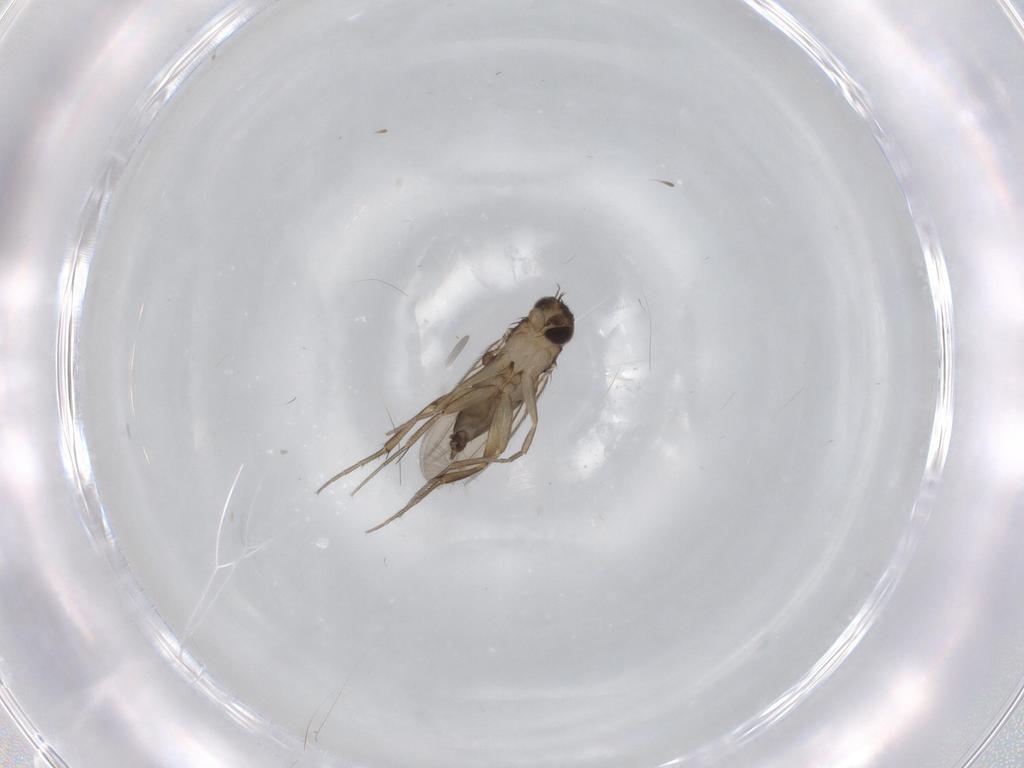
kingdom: Animalia
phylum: Arthropoda
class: Insecta
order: Diptera
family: Phoridae
